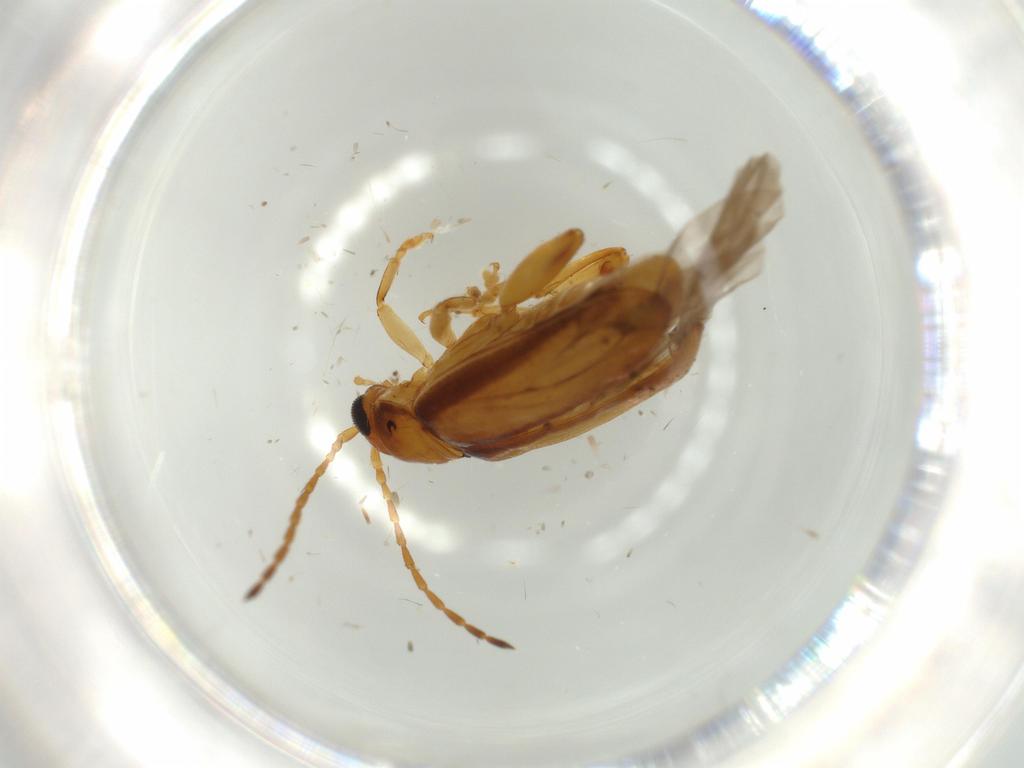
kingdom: Animalia
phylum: Arthropoda
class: Insecta
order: Coleoptera
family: Chrysomelidae
